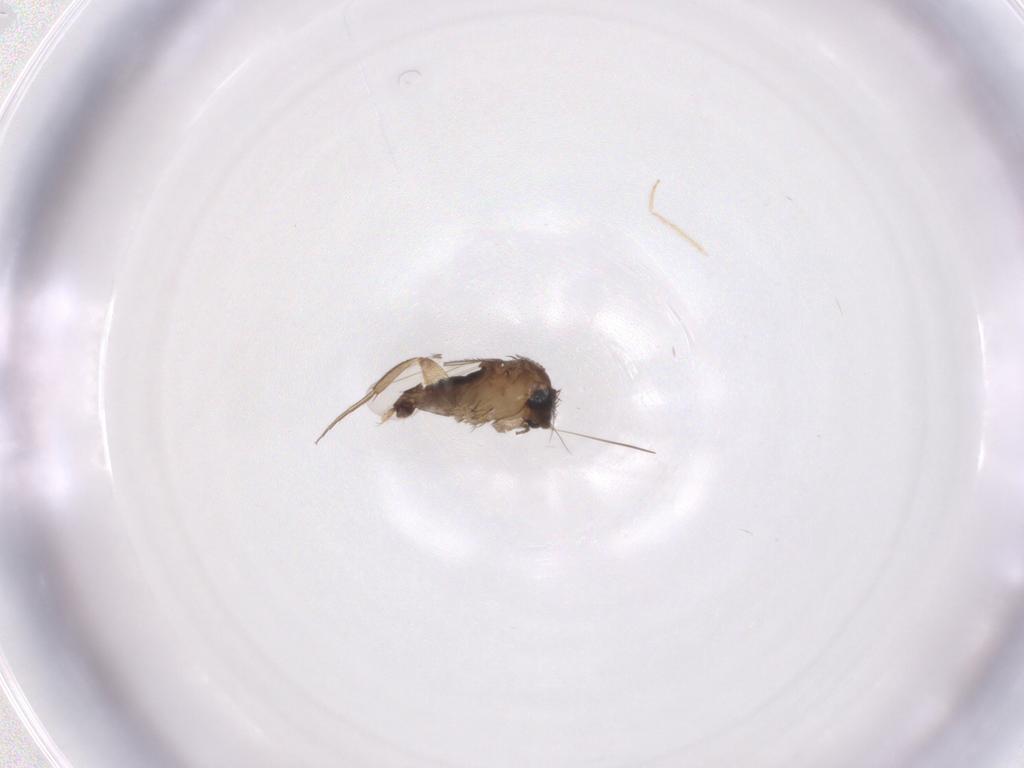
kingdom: Animalia
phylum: Arthropoda
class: Insecta
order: Diptera
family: Phoridae
